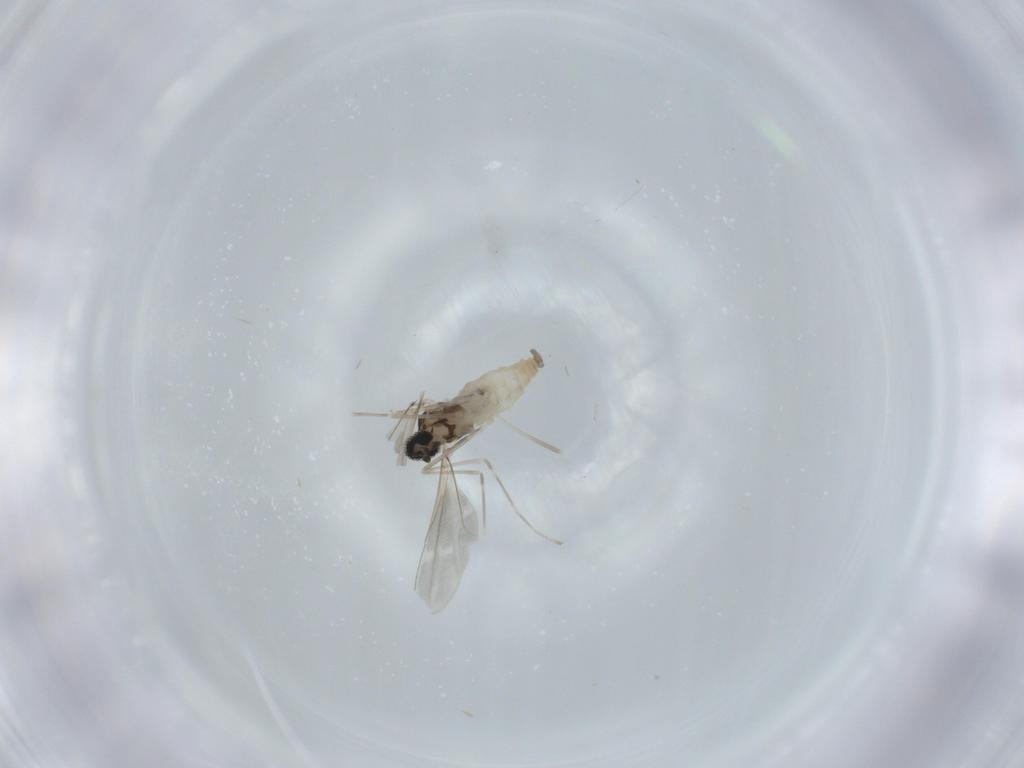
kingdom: Animalia
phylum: Arthropoda
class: Insecta
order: Diptera
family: Cecidomyiidae
